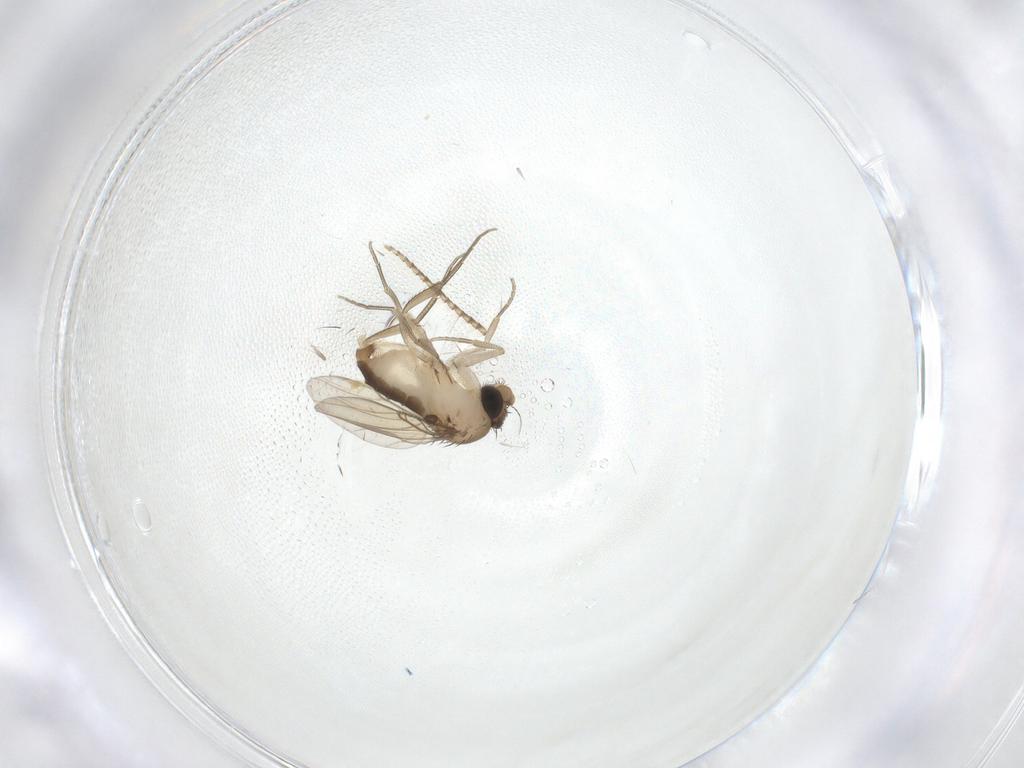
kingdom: Animalia
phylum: Arthropoda
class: Insecta
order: Diptera
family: Phoridae
